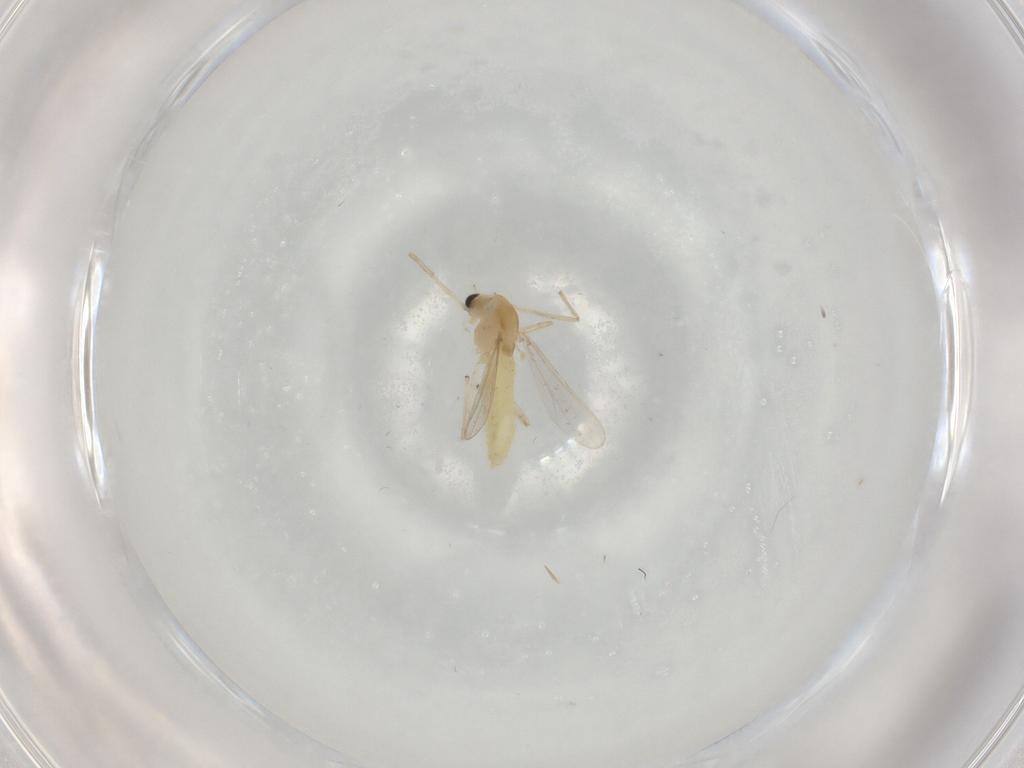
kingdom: Animalia
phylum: Arthropoda
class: Insecta
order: Diptera
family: Chironomidae
